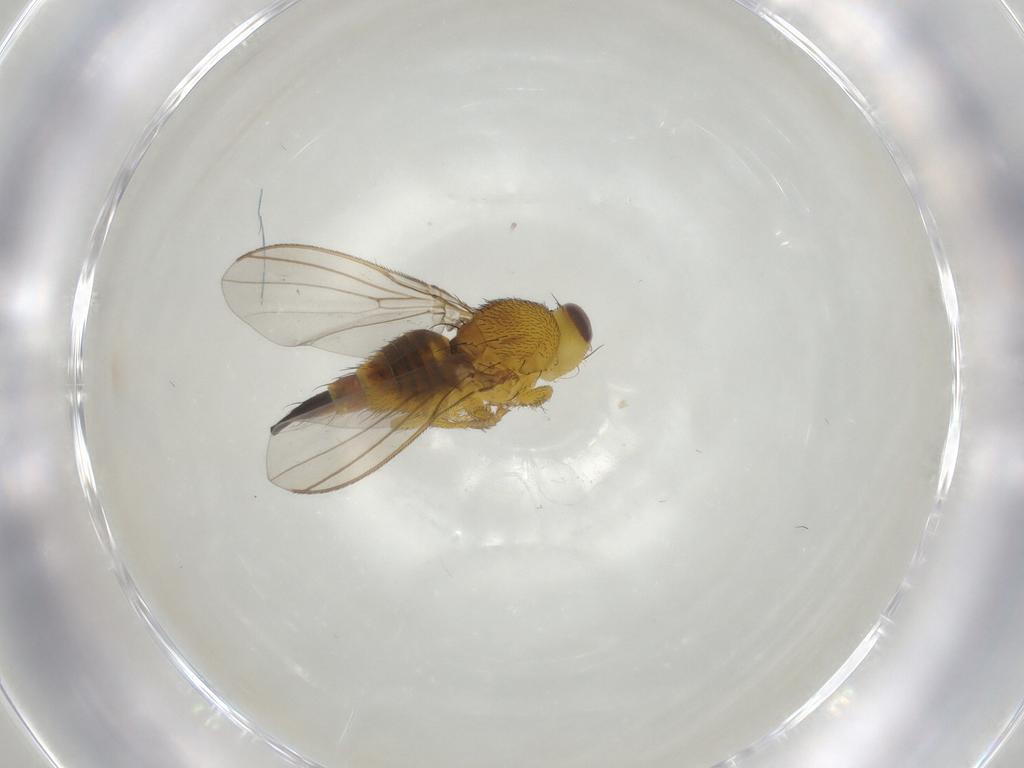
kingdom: Animalia
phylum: Arthropoda
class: Insecta
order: Diptera
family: Fergusoninidae
